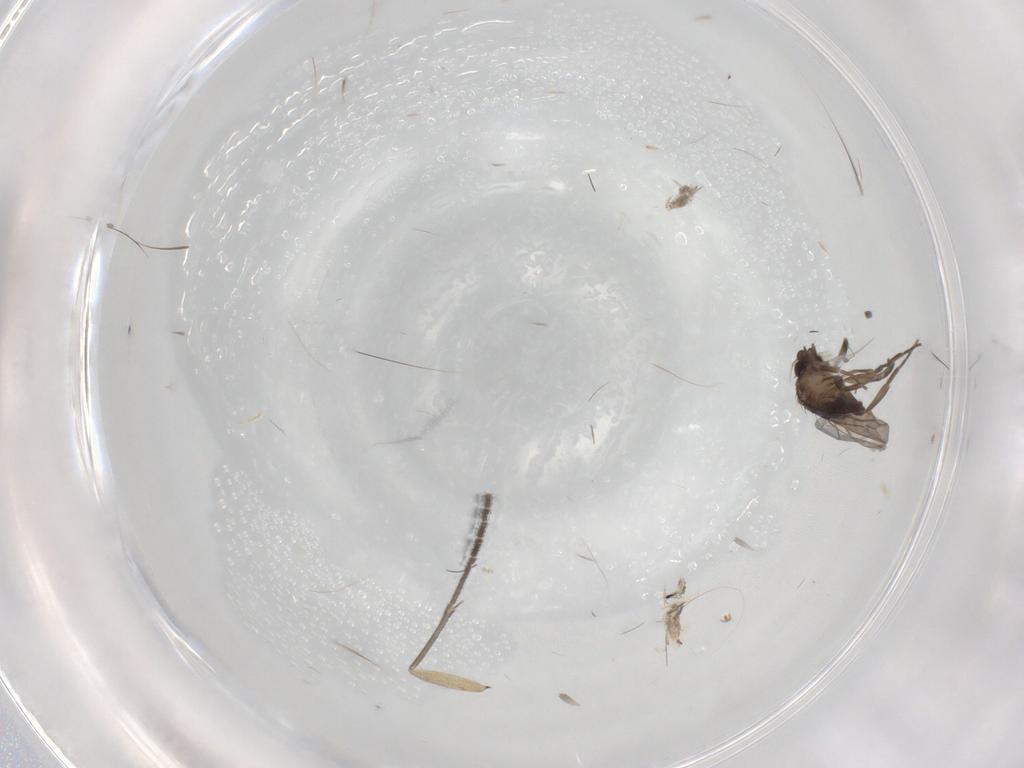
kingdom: Animalia
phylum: Arthropoda
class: Insecta
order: Diptera
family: Sciaridae
